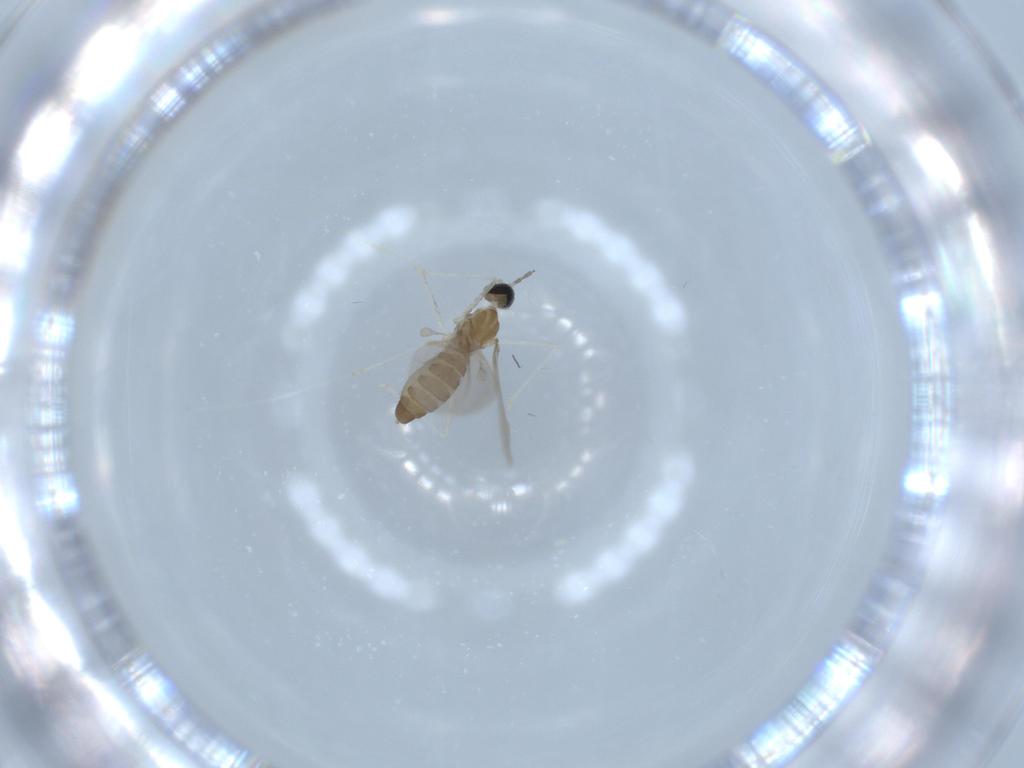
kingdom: Animalia
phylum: Arthropoda
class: Insecta
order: Diptera
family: Cecidomyiidae
